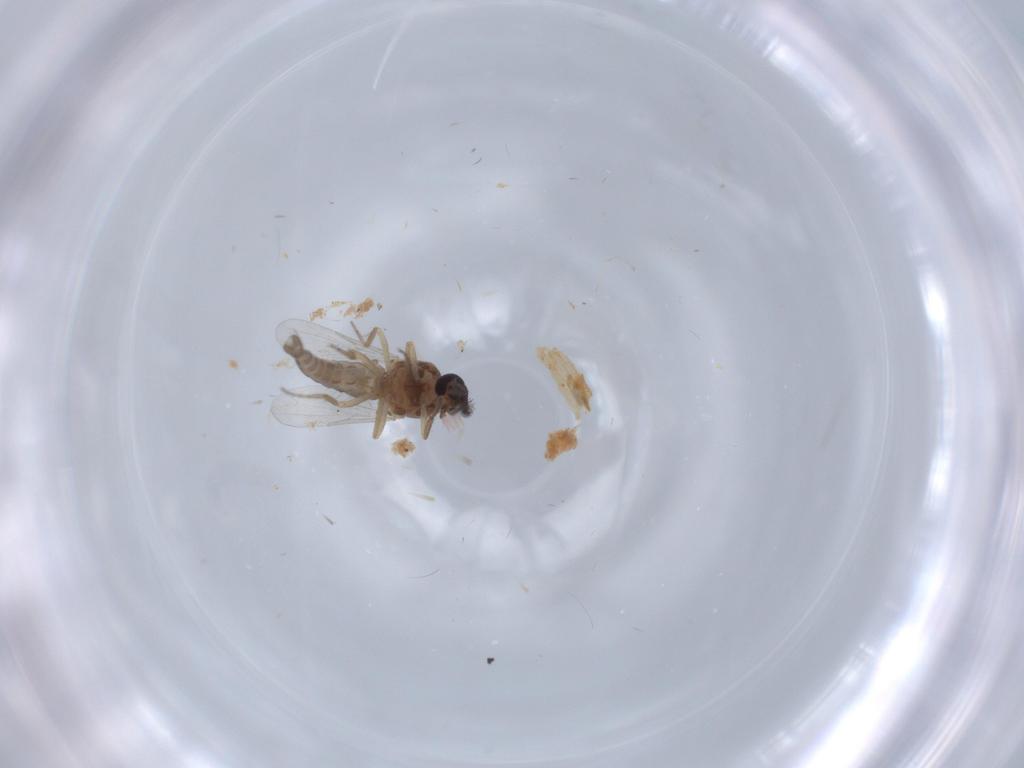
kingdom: Animalia
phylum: Arthropoda
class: Insecta
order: Diptera
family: Ceratopogonidae
